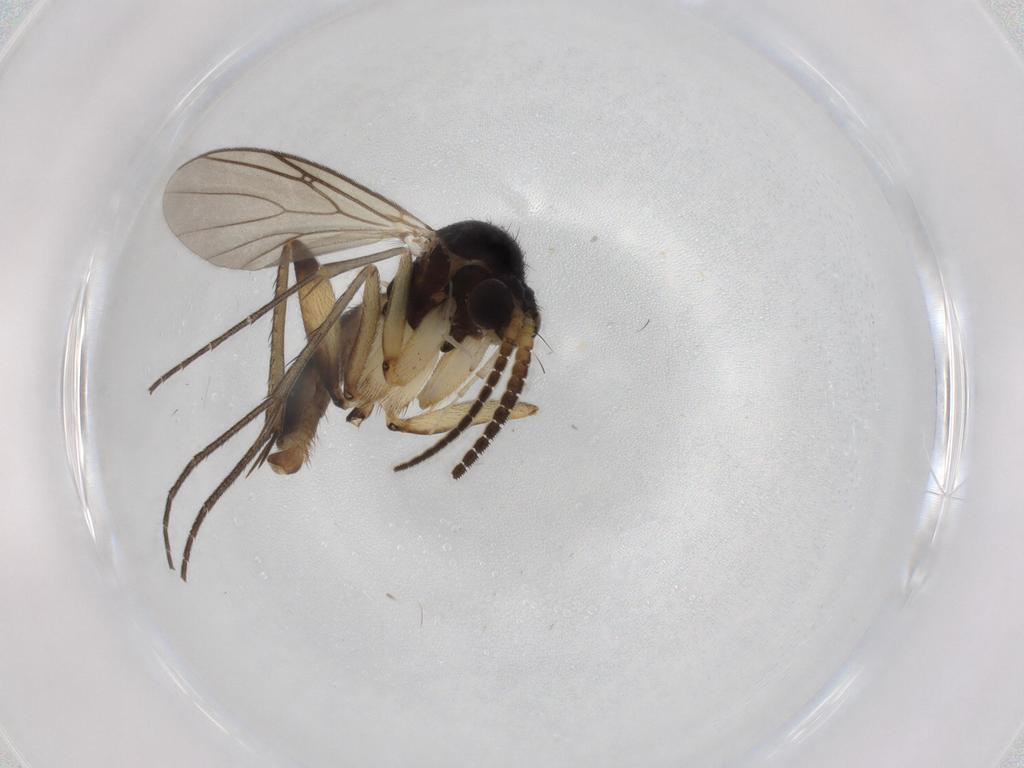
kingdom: Animalia
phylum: Arthropoda
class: Insecta
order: Diptera
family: Mycetophilidae
